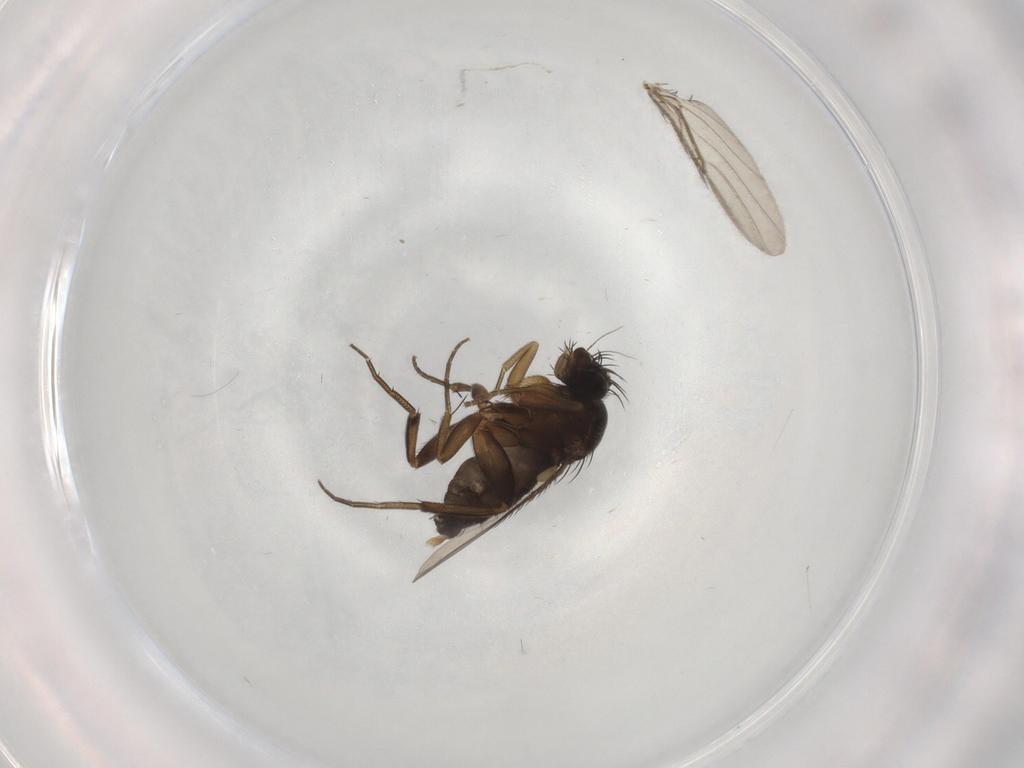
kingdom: Animalia
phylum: Arthropoda
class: Insecta
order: Diptera
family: Phoridae
